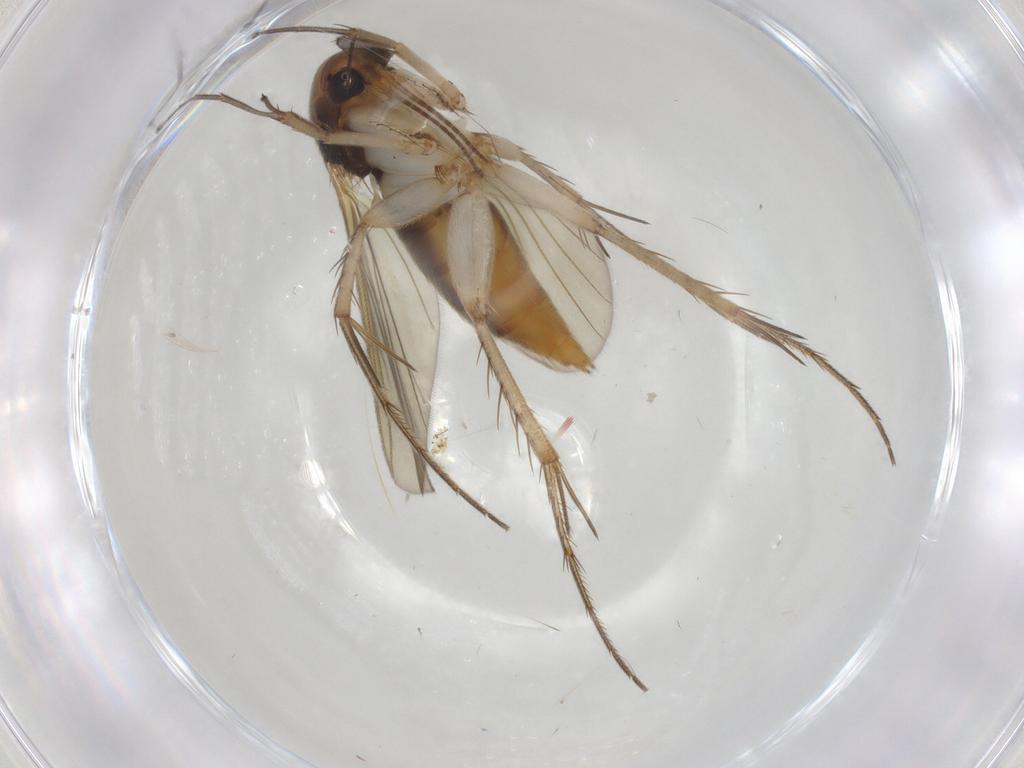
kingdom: Animalia
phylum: Arthropoda
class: Insecta
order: Diptera
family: Mycetophilidae
